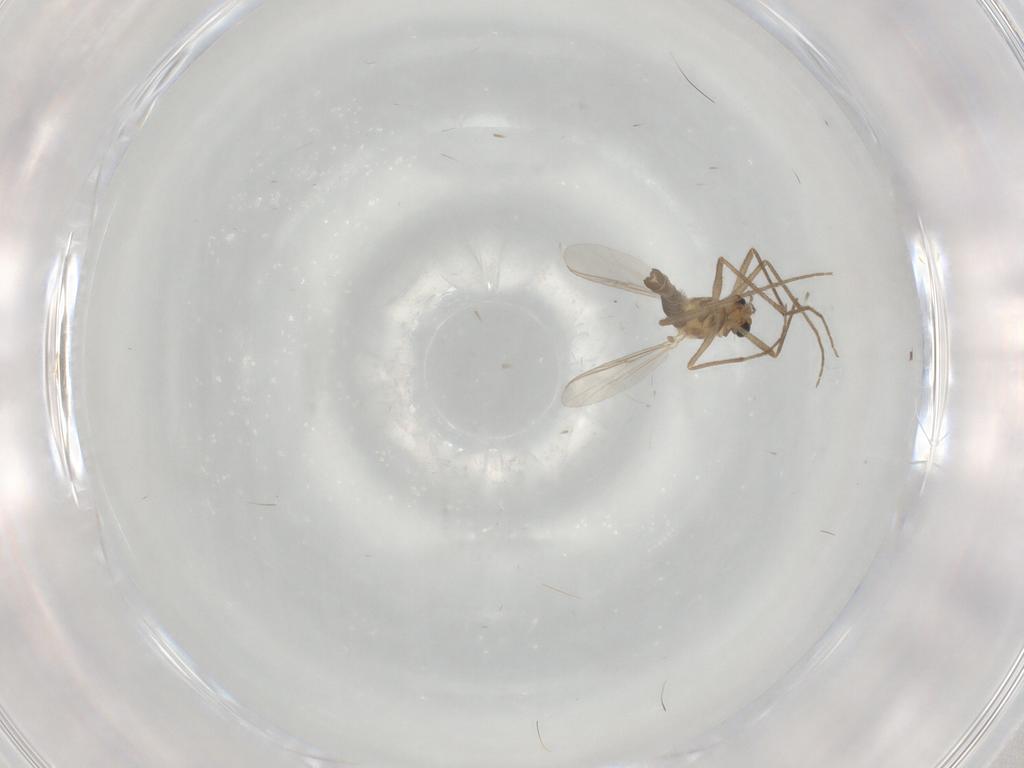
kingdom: Animalia
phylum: Arthropoda
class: Insecta
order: Diptera
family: Chironomidae
